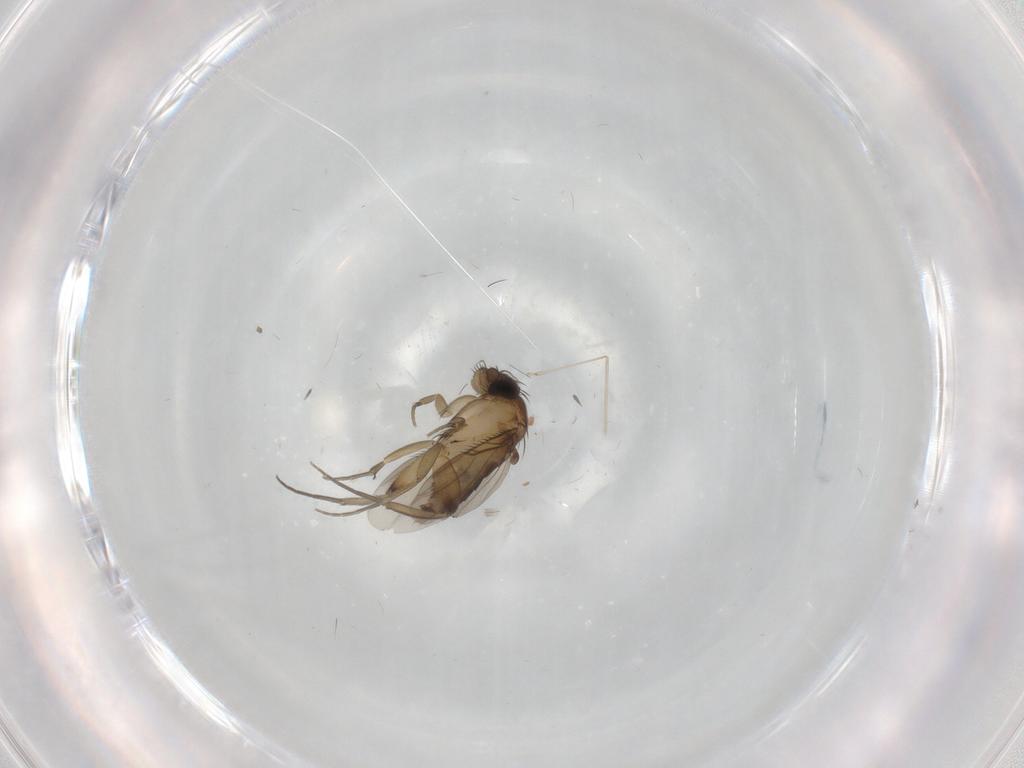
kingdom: Animalia
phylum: Arthropoda
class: Insecta
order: Diptera
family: Phoridae
